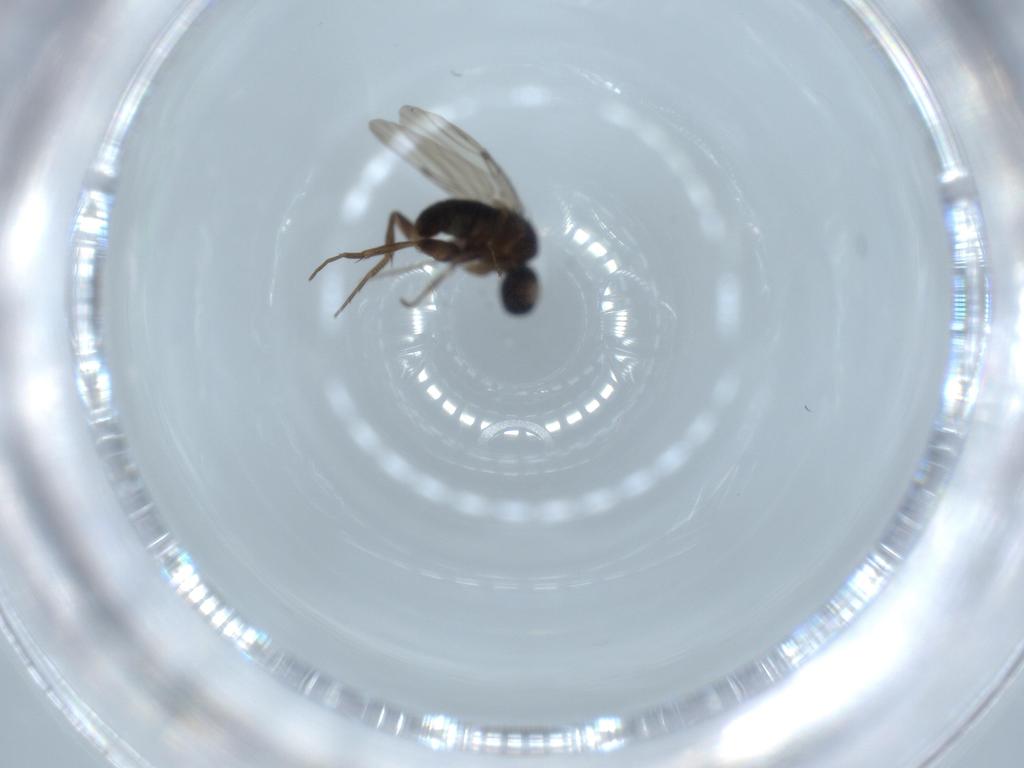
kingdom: Animalia
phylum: Arthropoda
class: Insecta
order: Diptera
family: Phoridae
